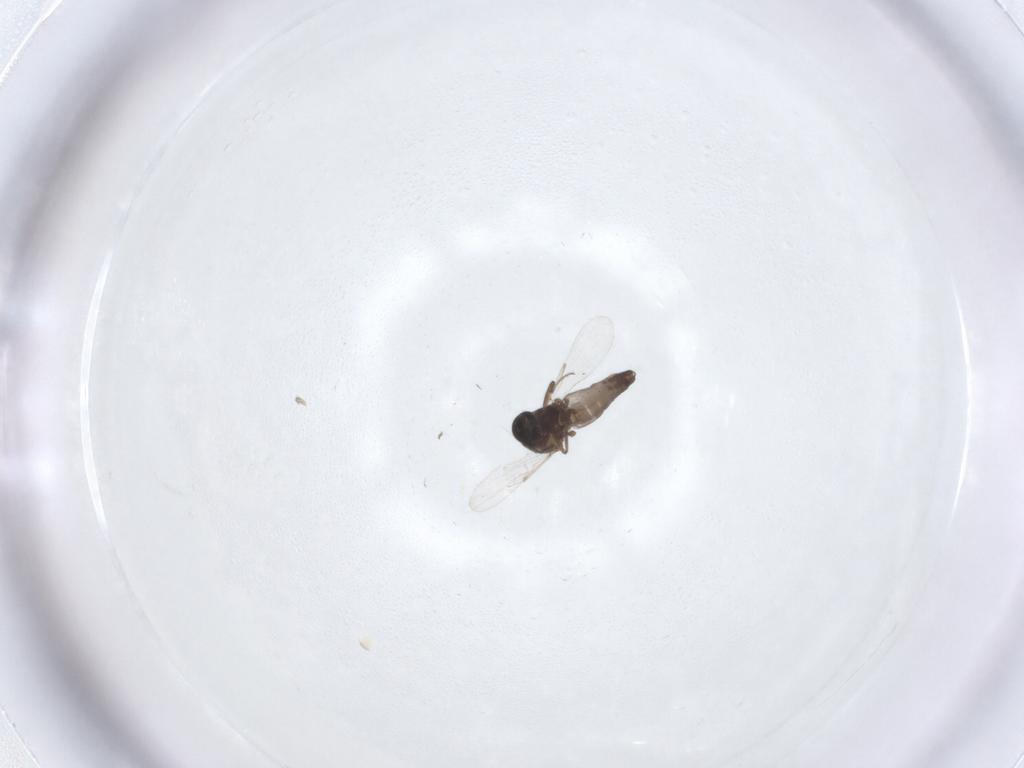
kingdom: Animalia
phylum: Arthropoda
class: Insecta
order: Diptera
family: Ceratopogonidae
